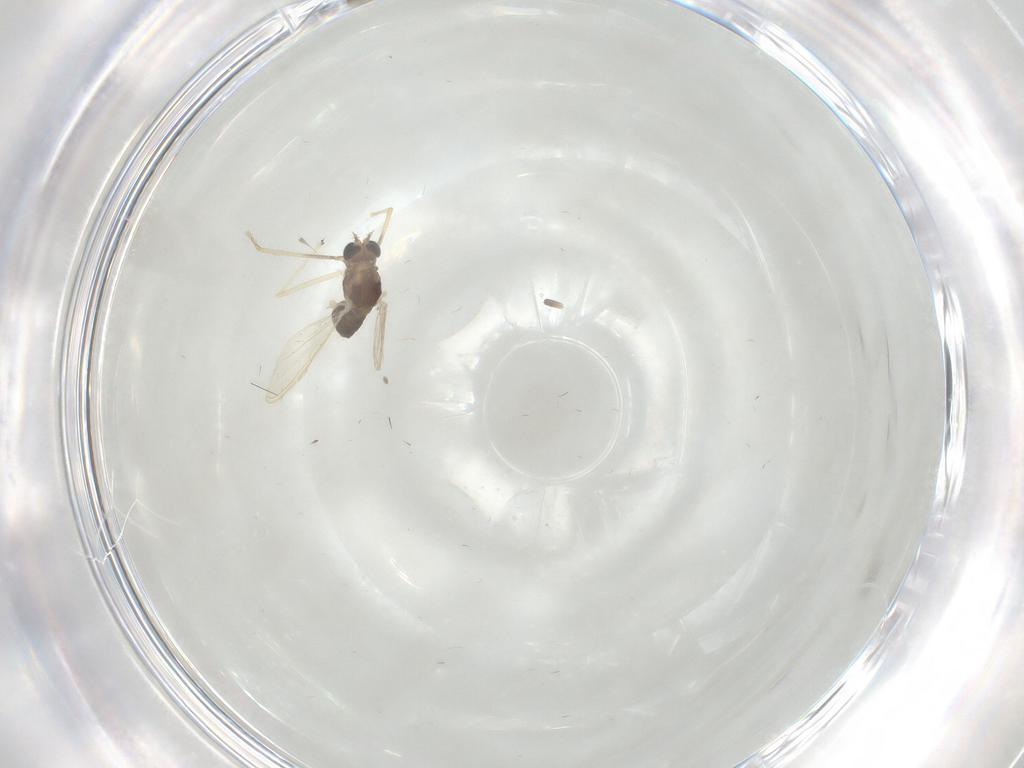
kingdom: Animalia
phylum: Arthropoda
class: Insecta
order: Diptera
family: Chironomidae
